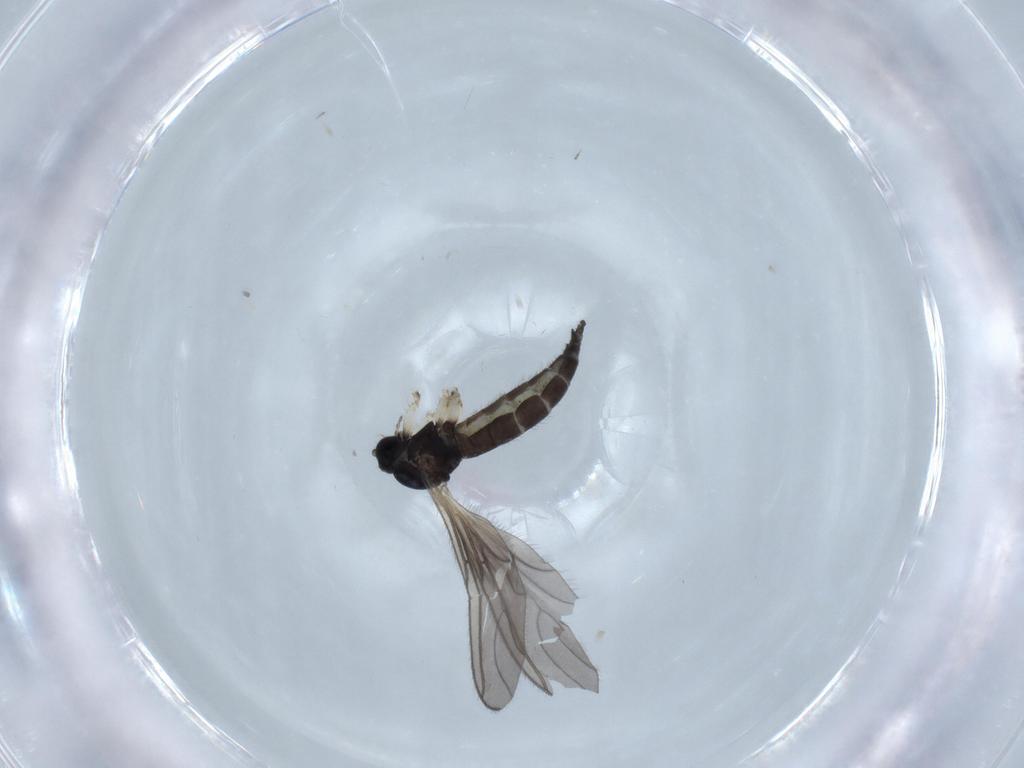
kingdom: Animalia
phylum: Arthropoda
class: Insecta
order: Diptera
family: Sciaridae
